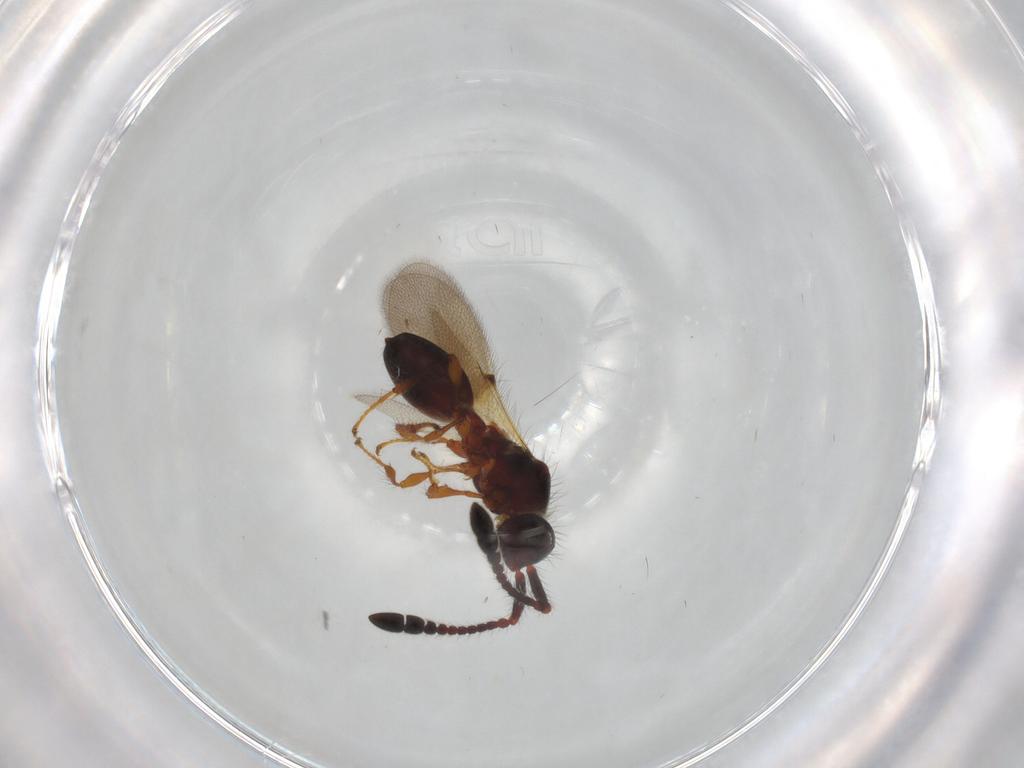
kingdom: Animalia
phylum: Arthropoda
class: Insecta
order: Hymenoptera
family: Diapriidae
